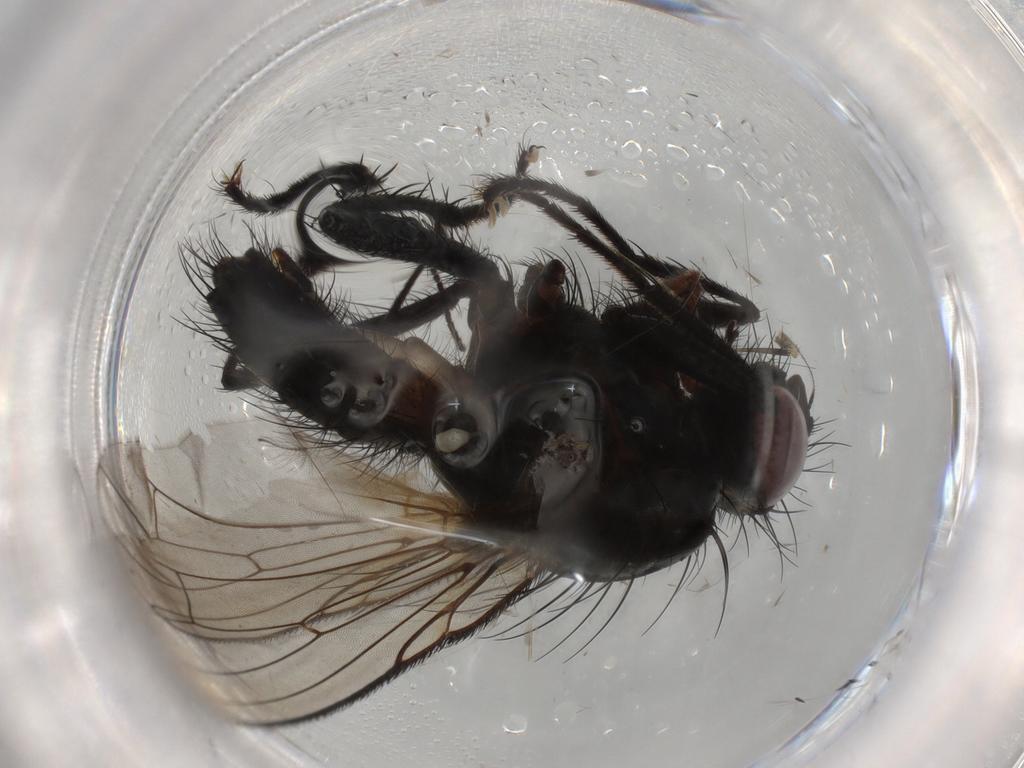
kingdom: Animalia
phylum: Arthropoda
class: Insecta
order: Diptera
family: Anthomyiidae
